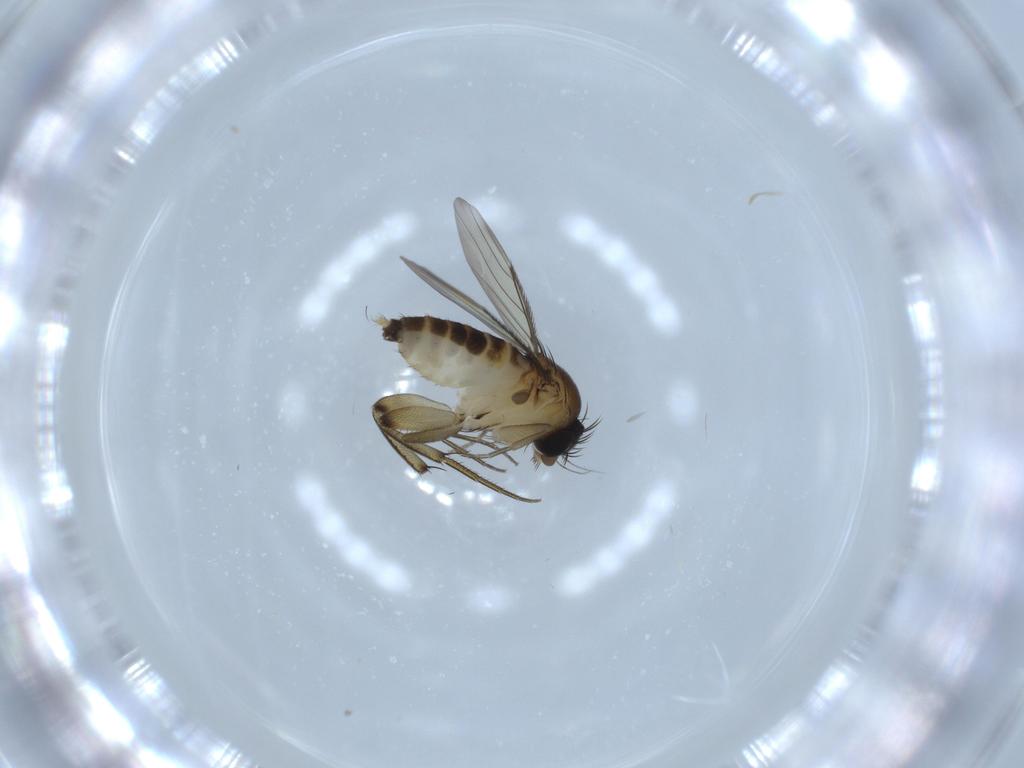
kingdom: Animalia
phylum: Arthropoda
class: Insecta
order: Diptera
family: Phoridae
